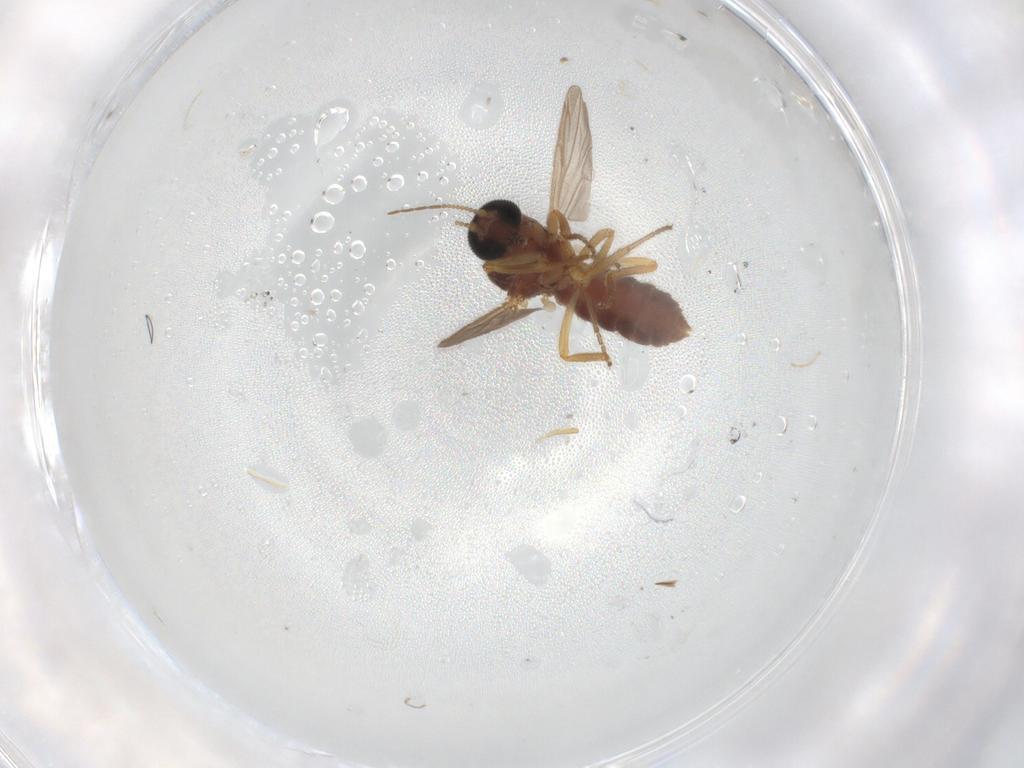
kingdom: Animalia
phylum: Arthropoda
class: Insecta
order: Diptera
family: Ceratopogonidae
